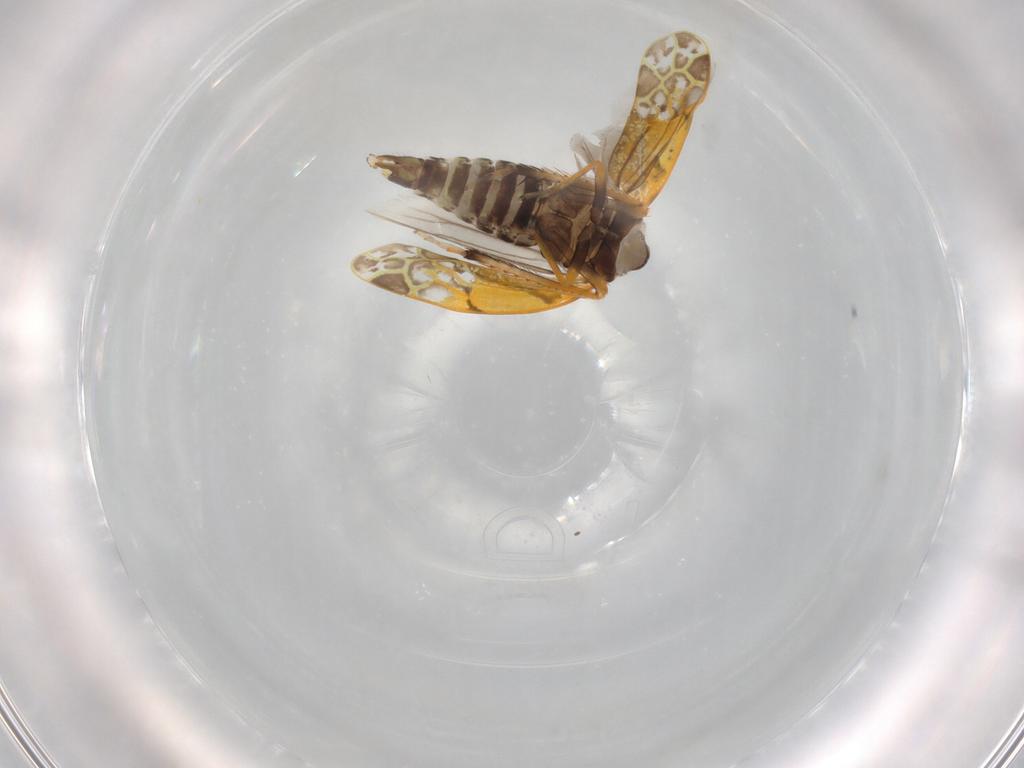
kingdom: Animalia
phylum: Arthropoda
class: Insecta
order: Hemiptera
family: Cicadellidae
